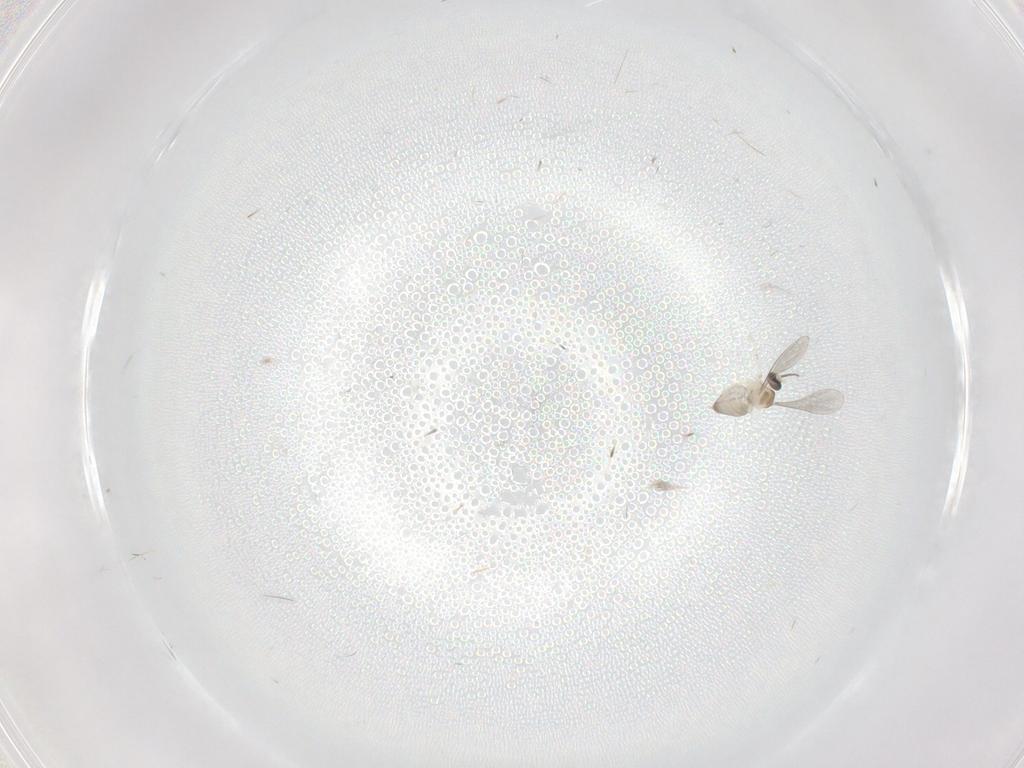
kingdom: Animalia
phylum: Arthropoda
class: Insecta
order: Diptera
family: Cecidomyiidae
